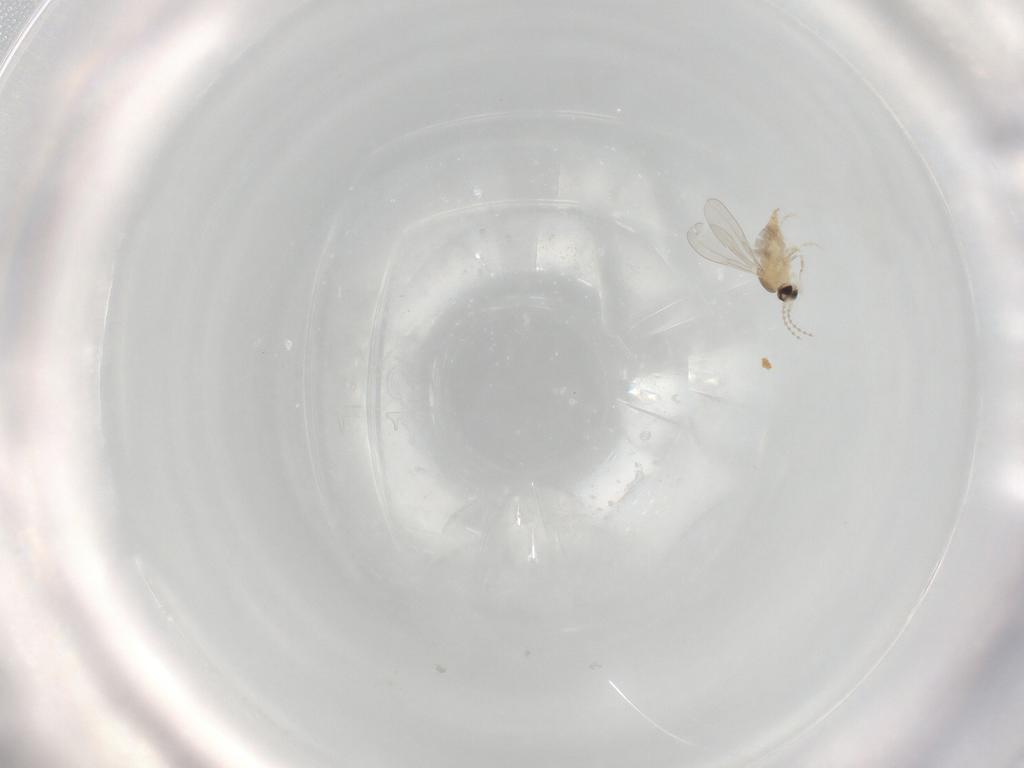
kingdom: Animalia
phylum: Arthropoda
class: Insecta
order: Diptera
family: Chironomidae
